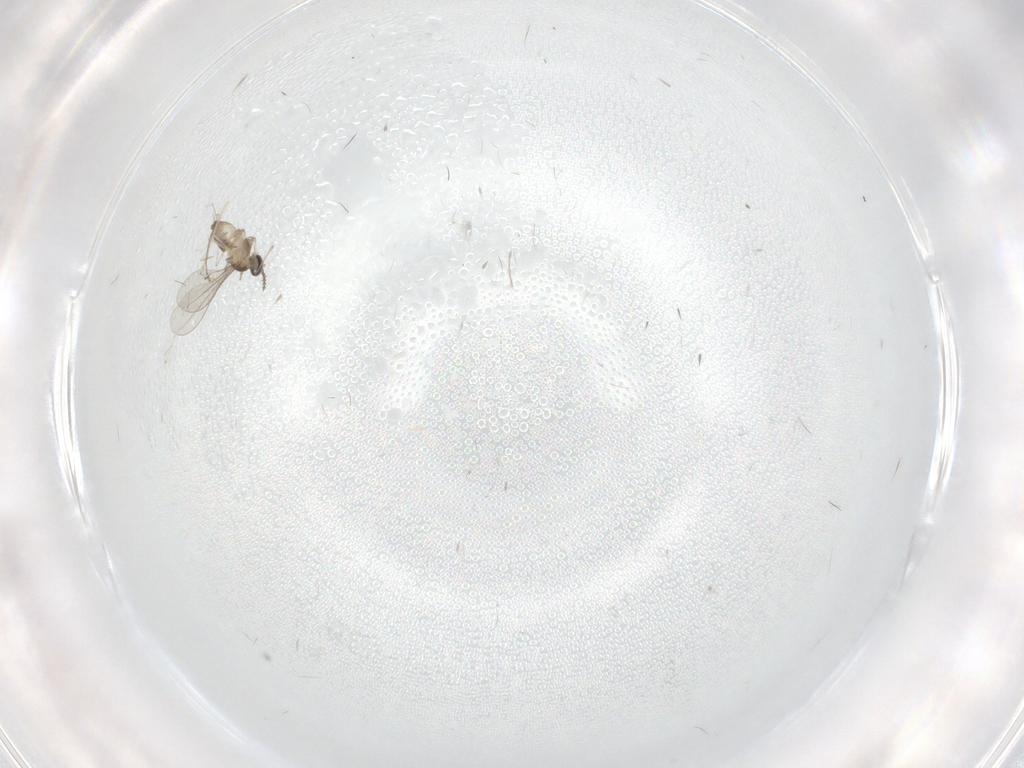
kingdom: Animalia
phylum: Arthropoda
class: Insecta
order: Diptera
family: Cecidomyiidae
